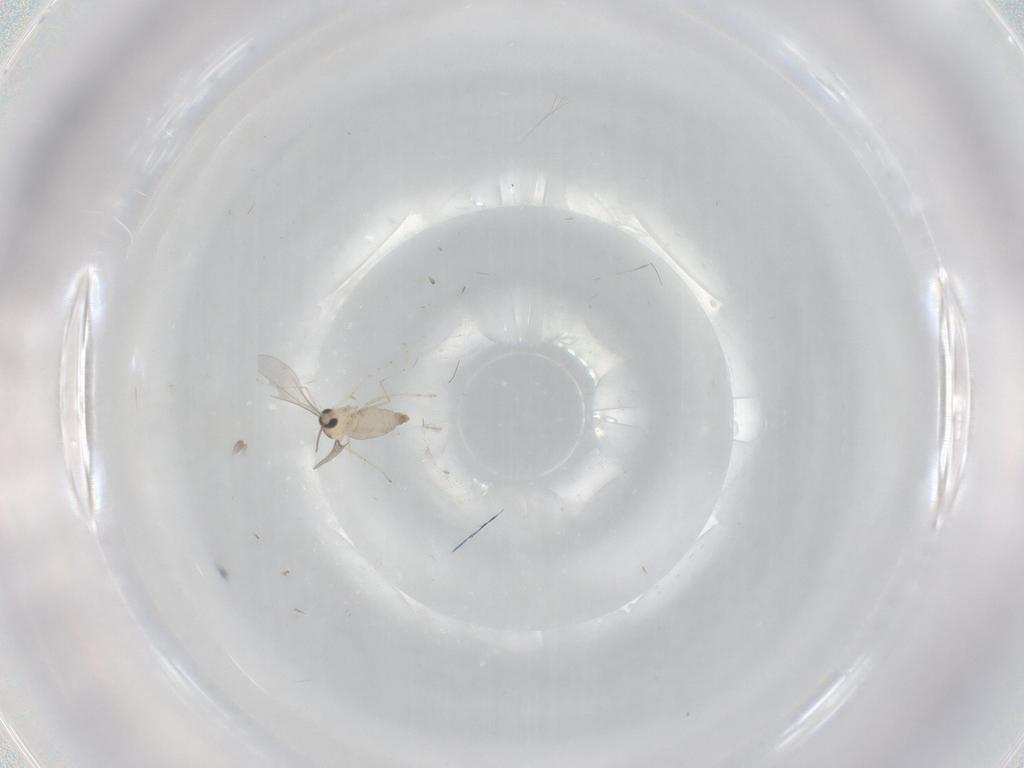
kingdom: Animalia
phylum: Arthropoda
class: Insecta
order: Diptera
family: Cecidomyiidae
